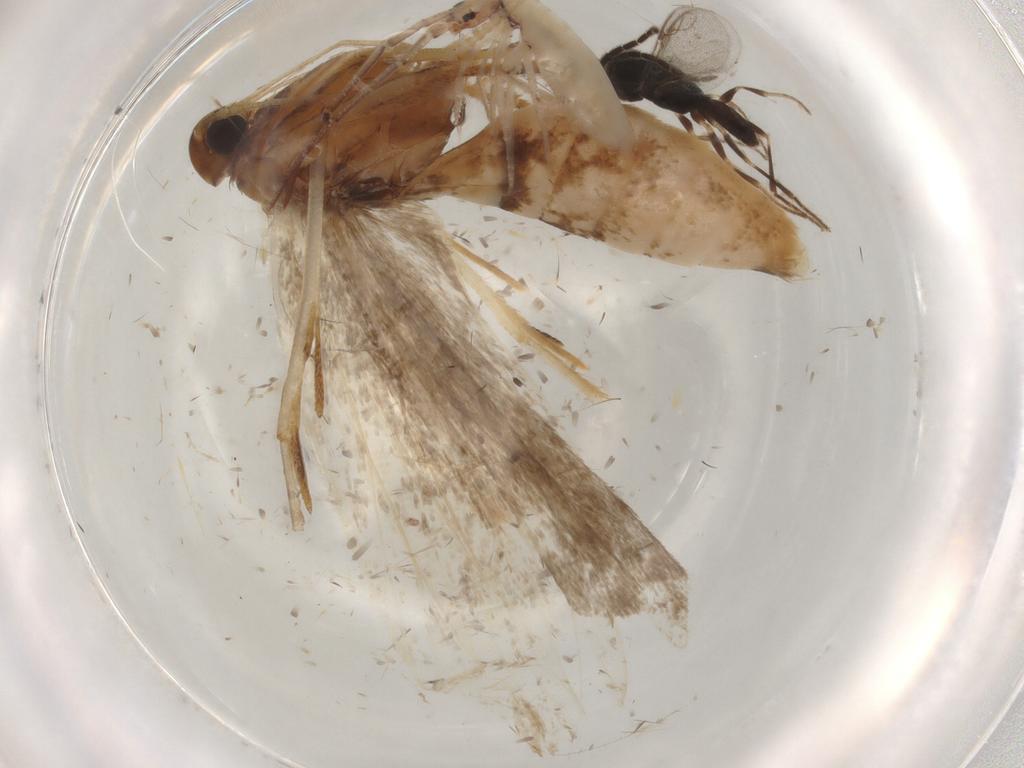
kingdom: Animalia
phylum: Arthropoda
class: Insecta
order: Lepidoptera
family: Gelechiidae
